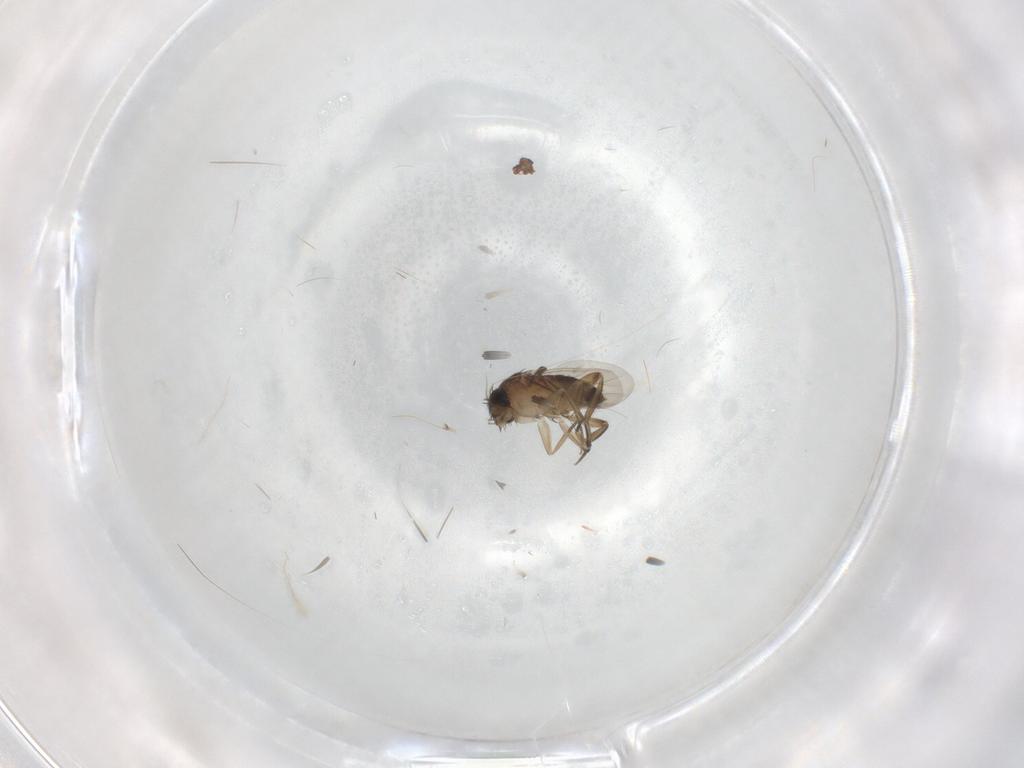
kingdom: Animalia
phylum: Arthropoda
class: Insecta
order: Diptera
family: Phoridae
